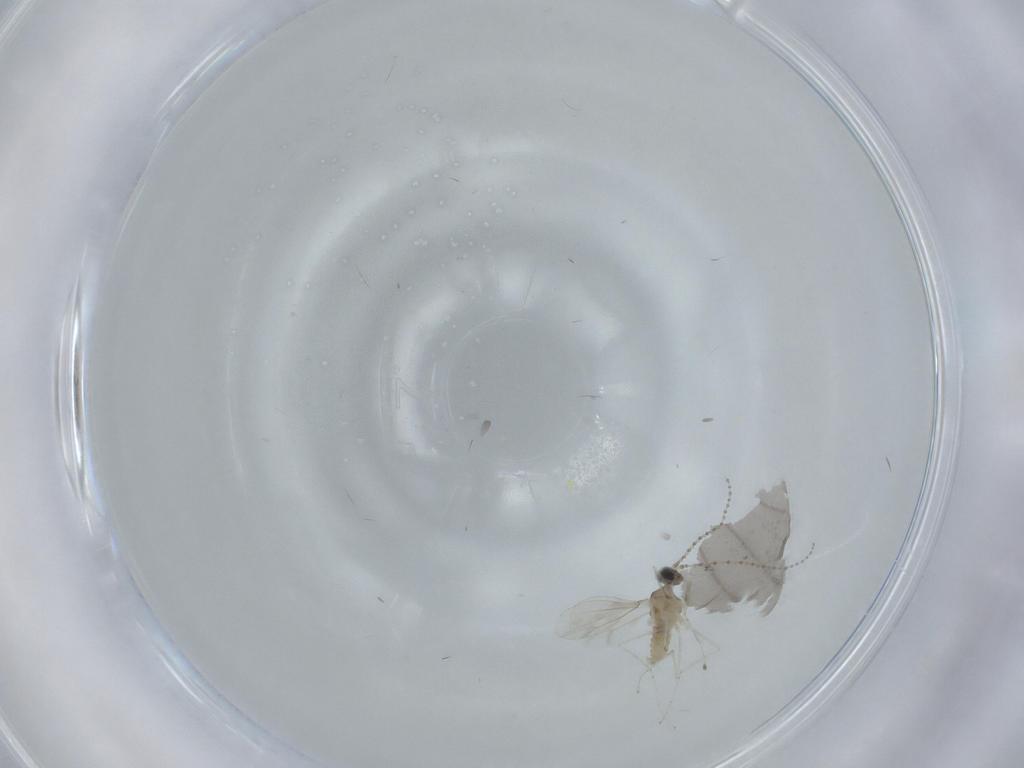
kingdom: Animalia
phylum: Arthropoda
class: Insecta
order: Diptera
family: Cecidomyiidae
